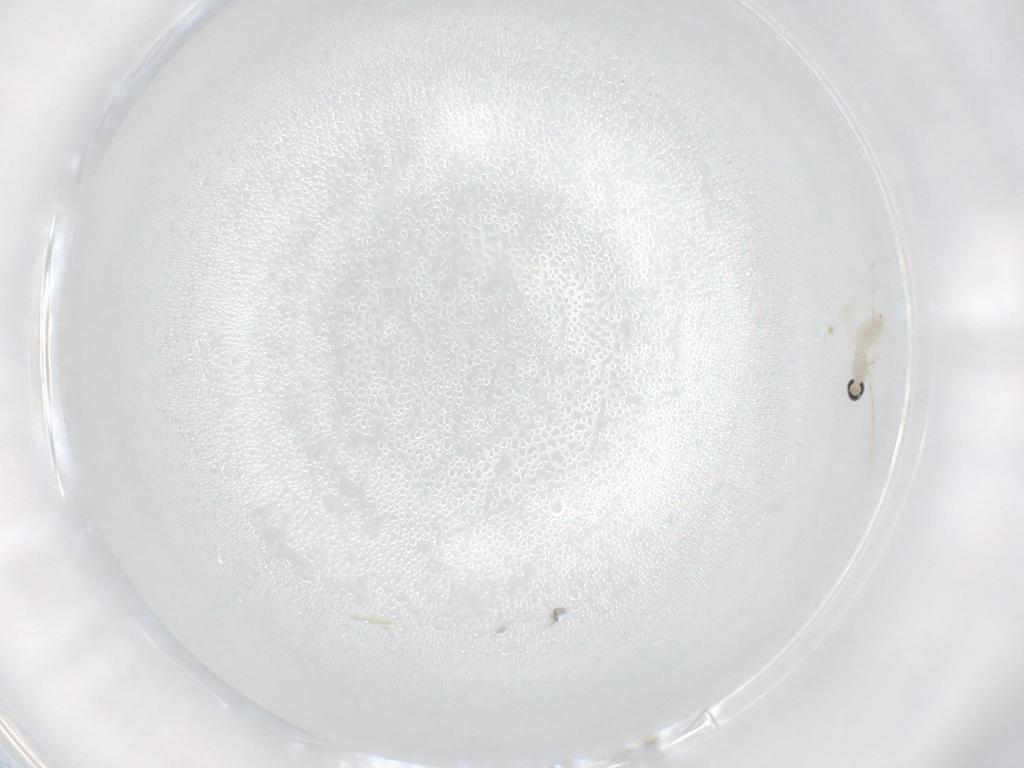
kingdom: Animalia
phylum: Arthropoda
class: Insecta
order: Diptera
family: Cecidomyiidae
